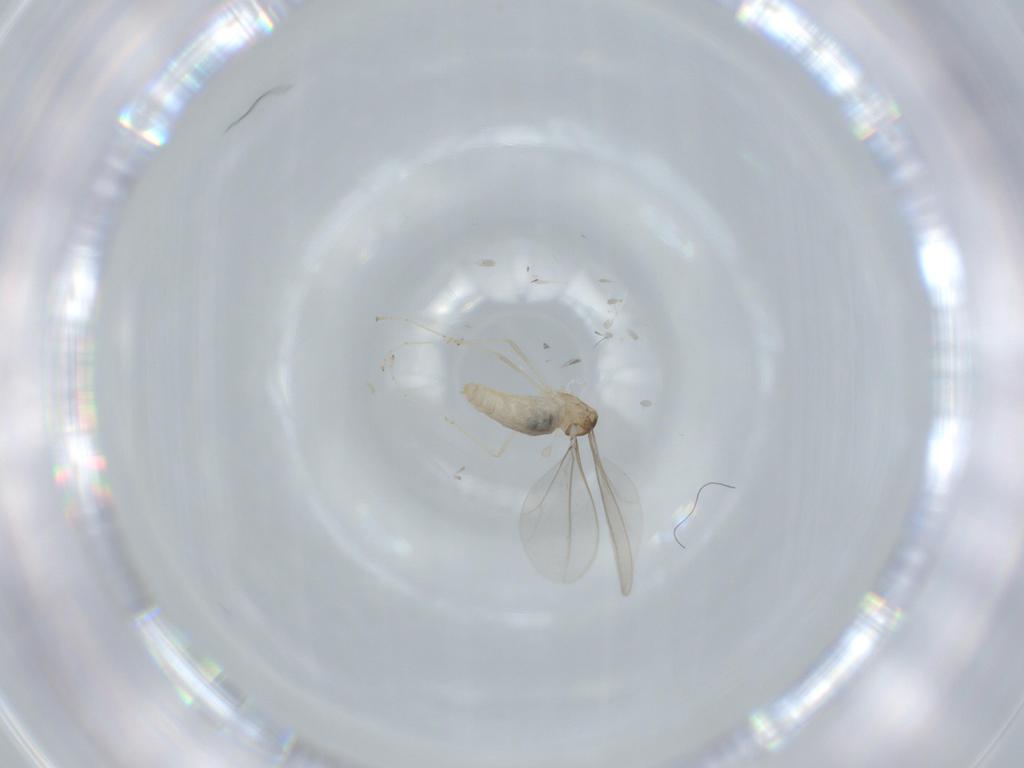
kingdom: Animalia
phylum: Arthropoda
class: Insecta
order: Diptera
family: Cecidomyiidae
